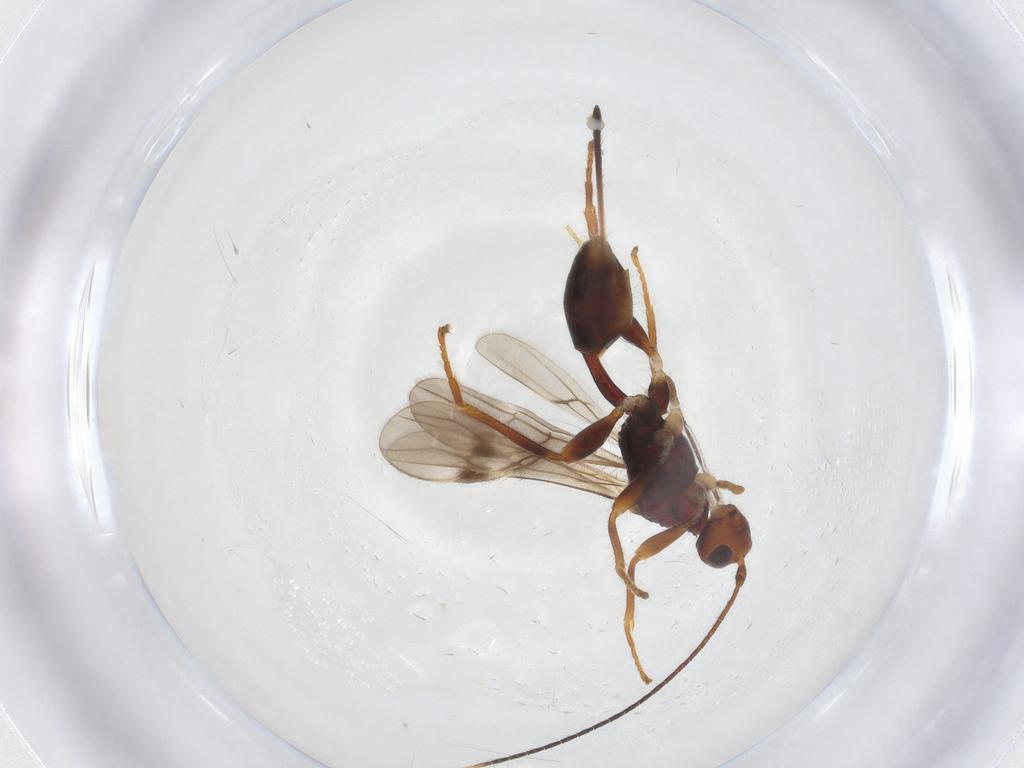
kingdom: Animalia
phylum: Arthropoda
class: Insecta
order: Hymenoptera
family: Braconidae
